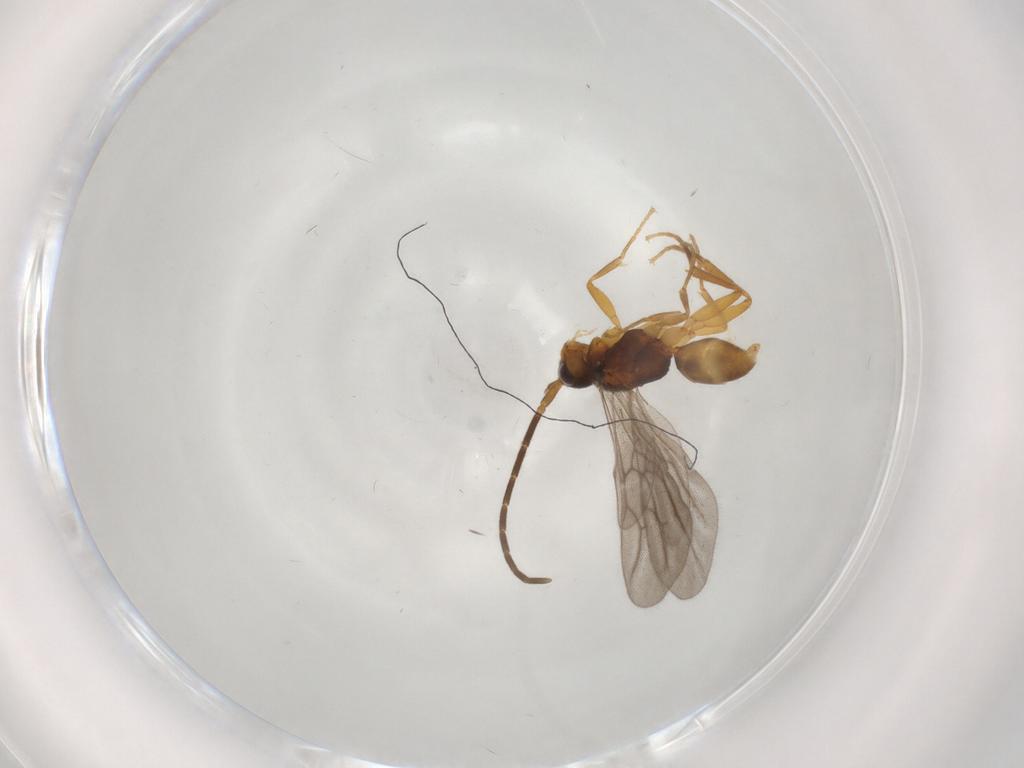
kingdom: Animalia
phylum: Arthropoda
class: Insecta
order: Hymenoptera
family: Embolemidae
